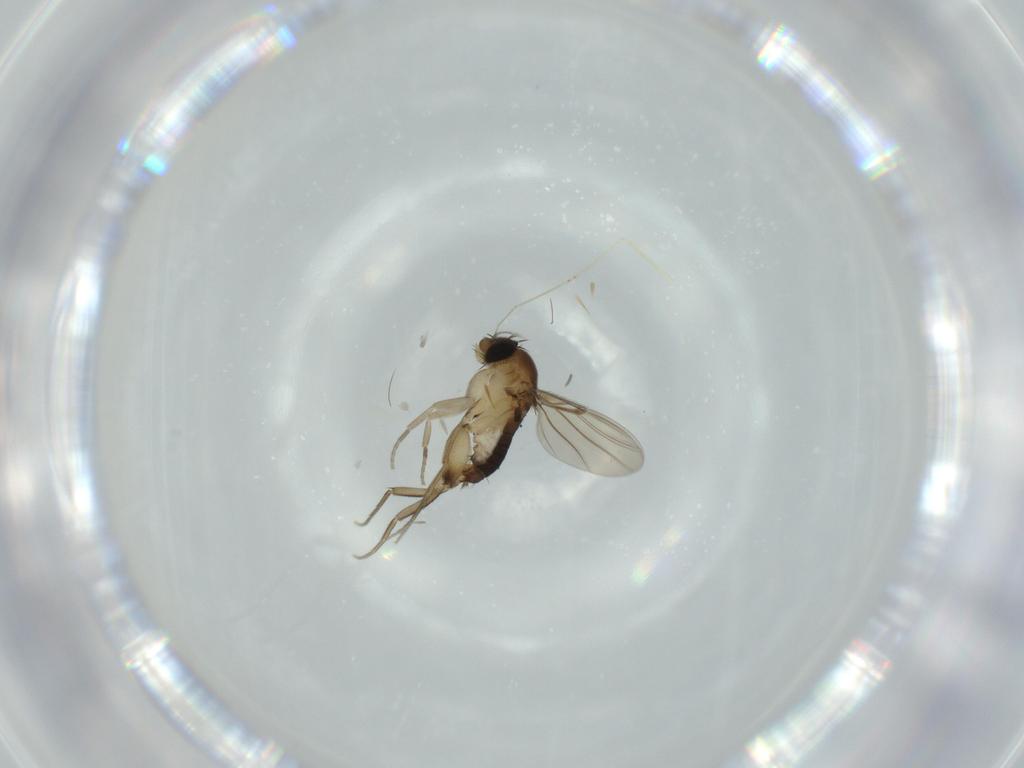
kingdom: Animalia
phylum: Arthropoda
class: Insecta
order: Diptera
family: Phoridae
